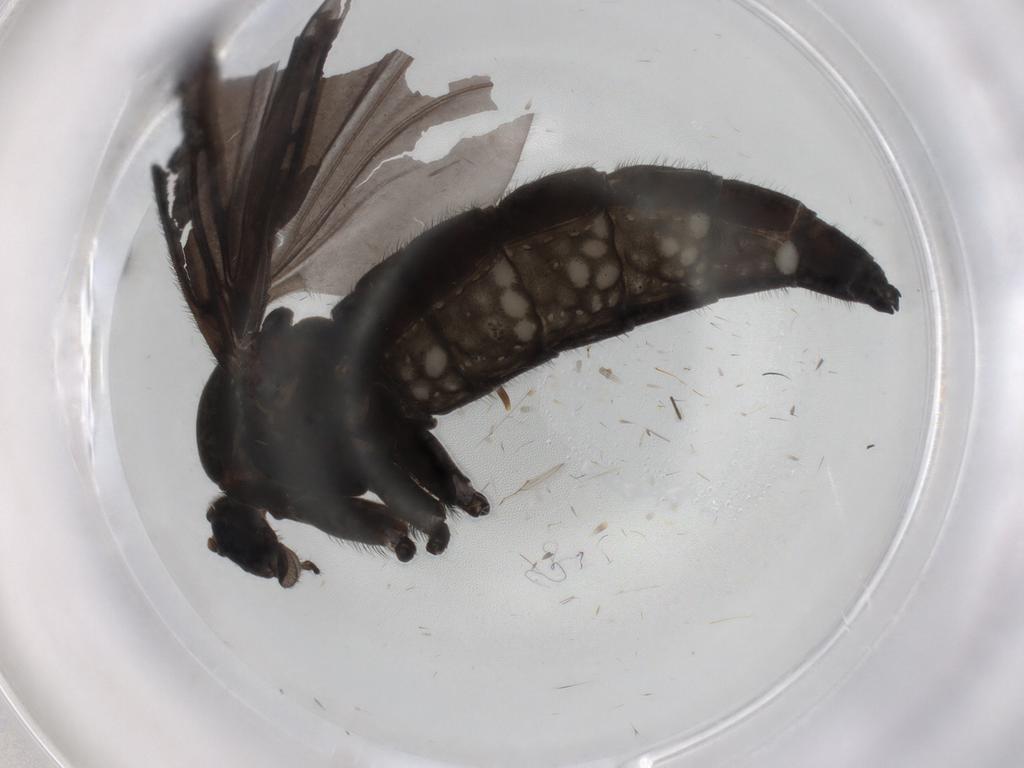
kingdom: Animalia
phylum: Arthropoda
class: Insecta
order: Diptera
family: Sciaridae
